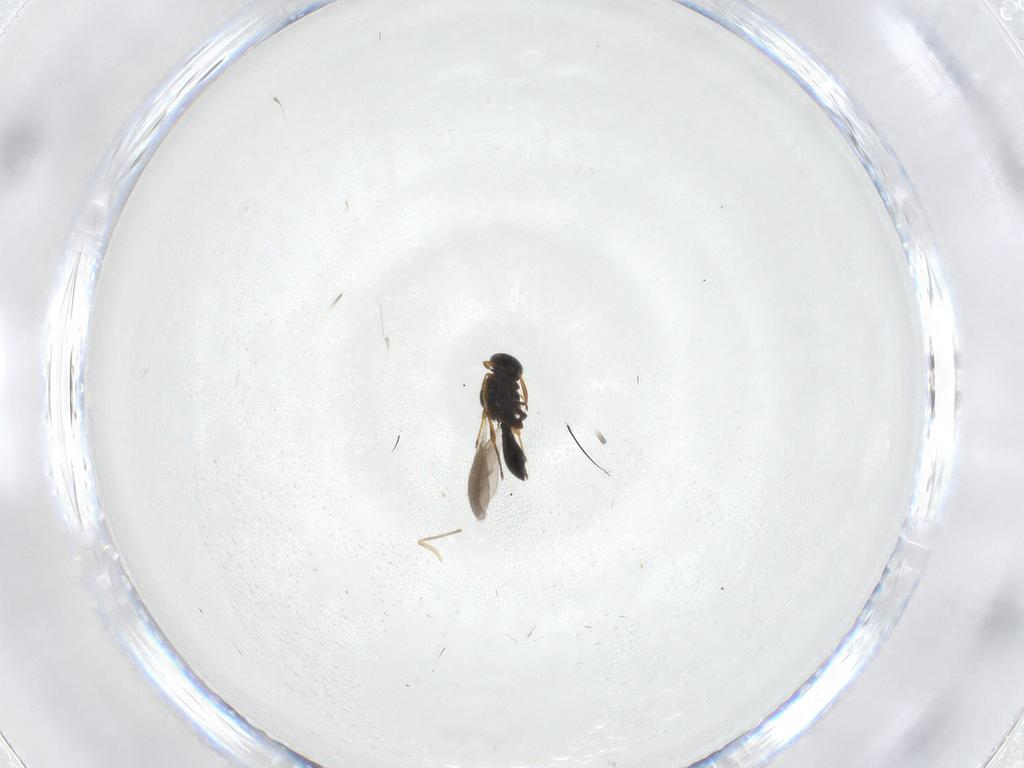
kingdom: Animalia
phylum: Arthropoda
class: Insecta
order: Hymenoptera
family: Platygastridae
